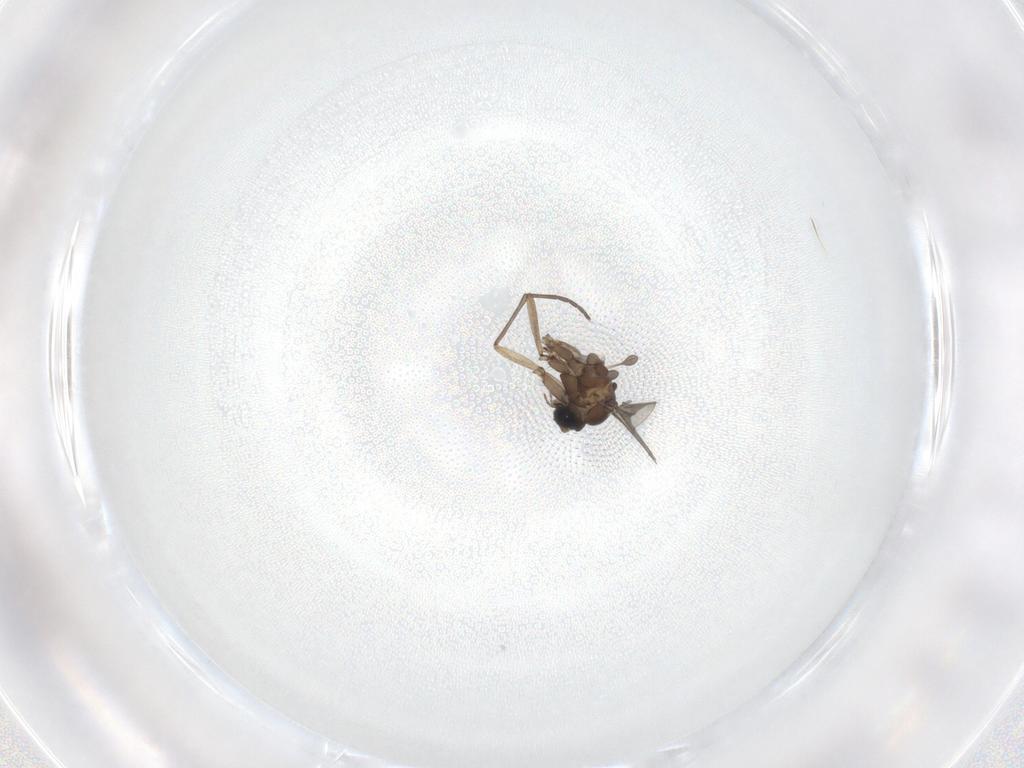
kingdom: Animalia
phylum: Arthropoda
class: Insecta
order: Diptera
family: Sciaridae
